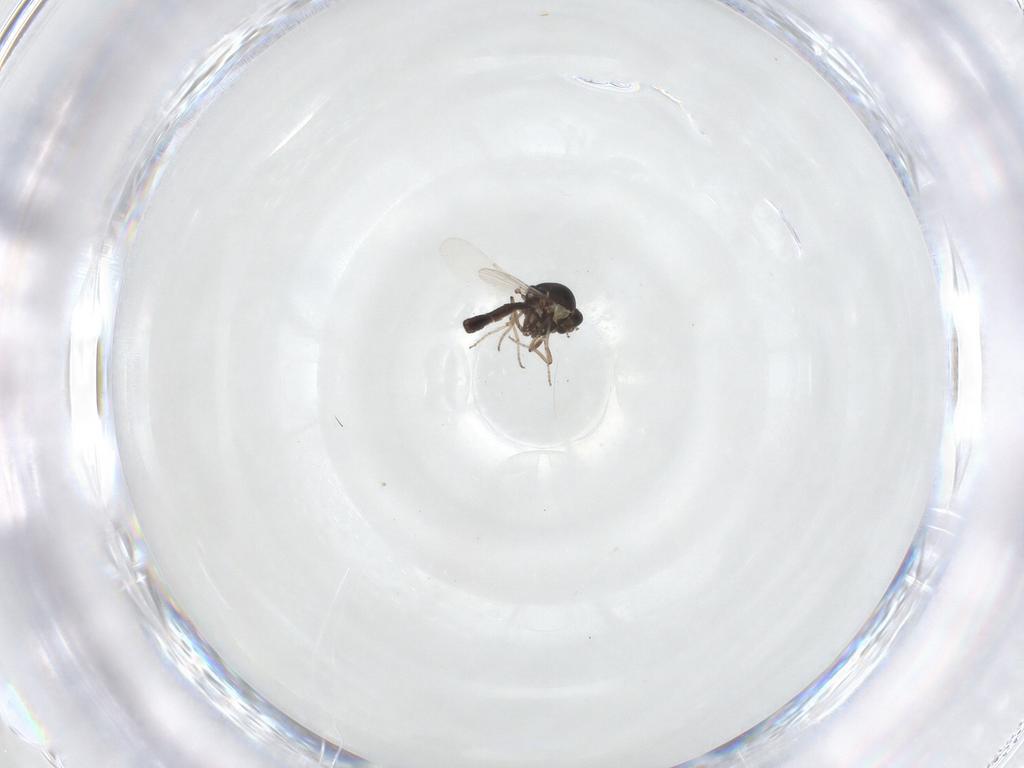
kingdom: Animalia
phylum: Arthropoda
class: Insecta
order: Diptera
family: Ceratopogonidae
